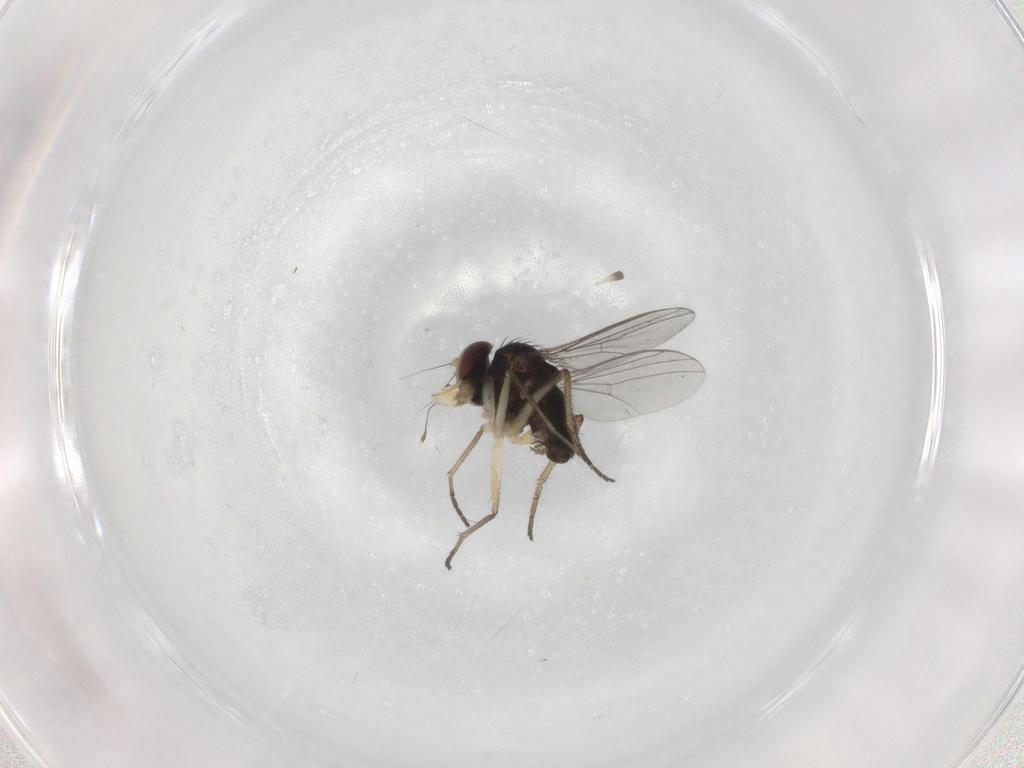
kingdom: Animalia
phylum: Arthropoda
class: Insecta
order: Diptera
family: Dolichopodidae
